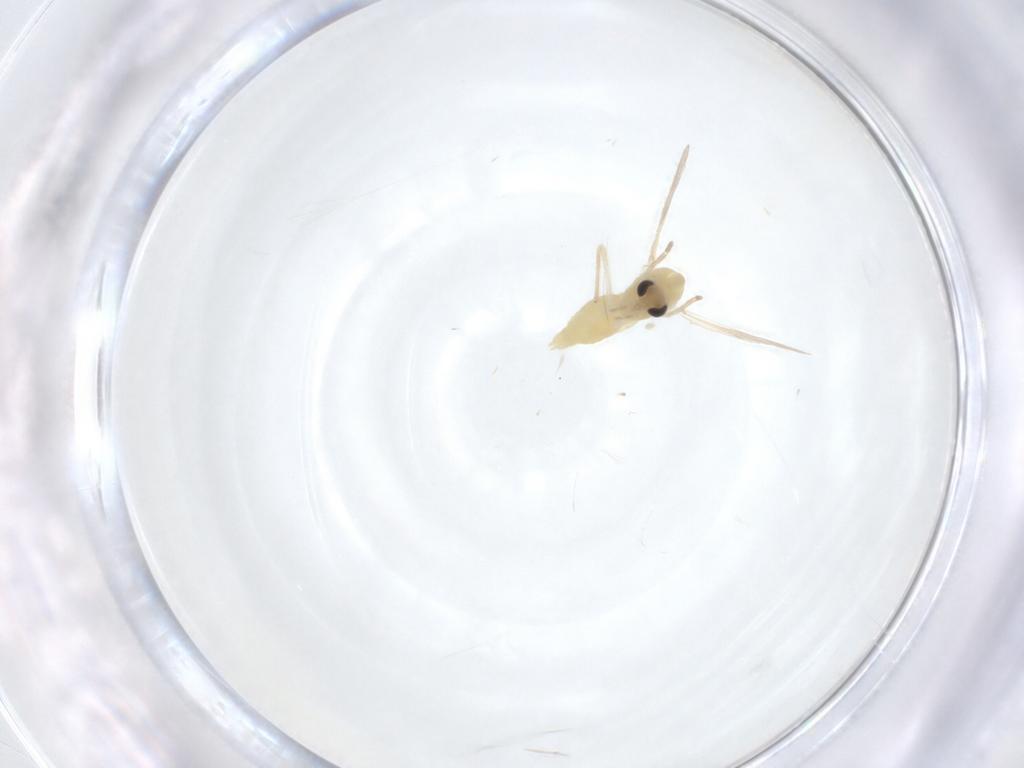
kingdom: Animalia
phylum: Arthropoda
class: Insecta
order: Diptera
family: Chironomidae
